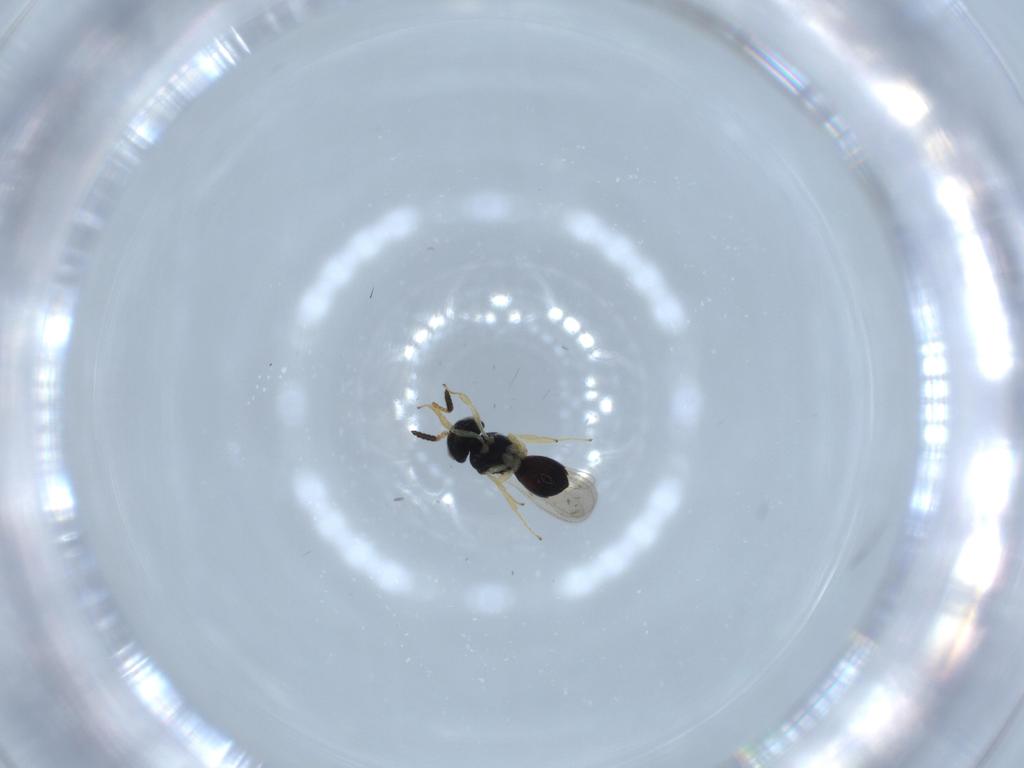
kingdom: Animalia
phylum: Arthropoda
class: Insecta
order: Hymenoptera
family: Scelionidae
